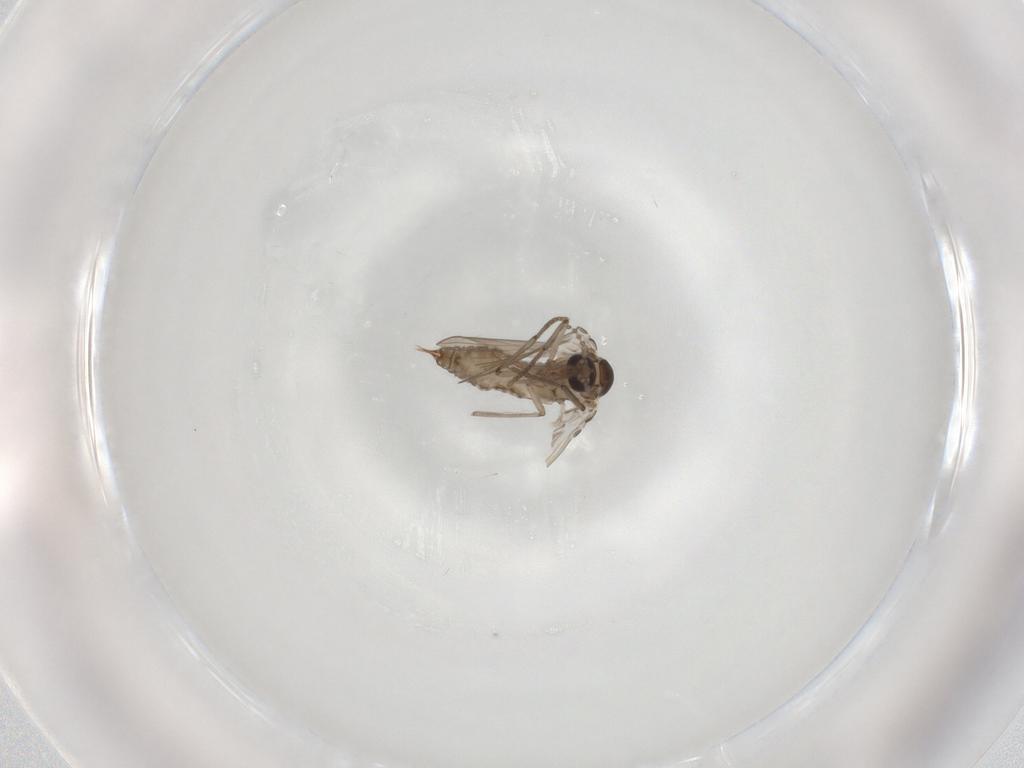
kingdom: Animalia
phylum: Arthropoda
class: Insecta
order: Diptera
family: Psychodidae
